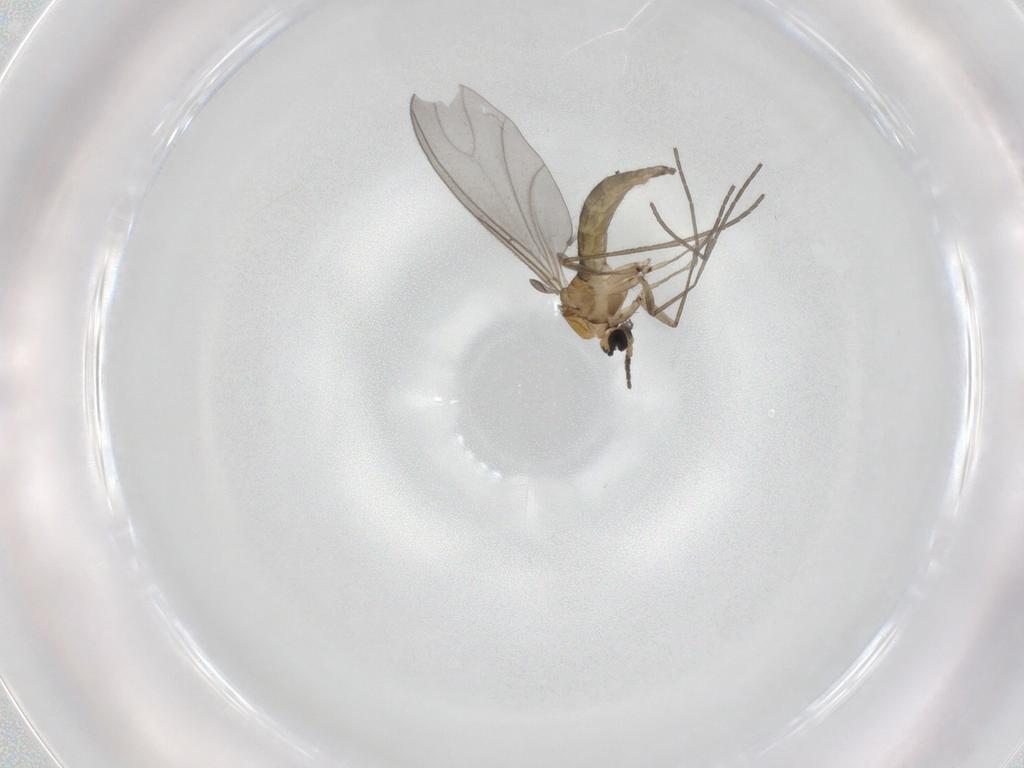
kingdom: Animalia
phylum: Arthropoda
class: Insecta
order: Diptera
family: Sciaridae
